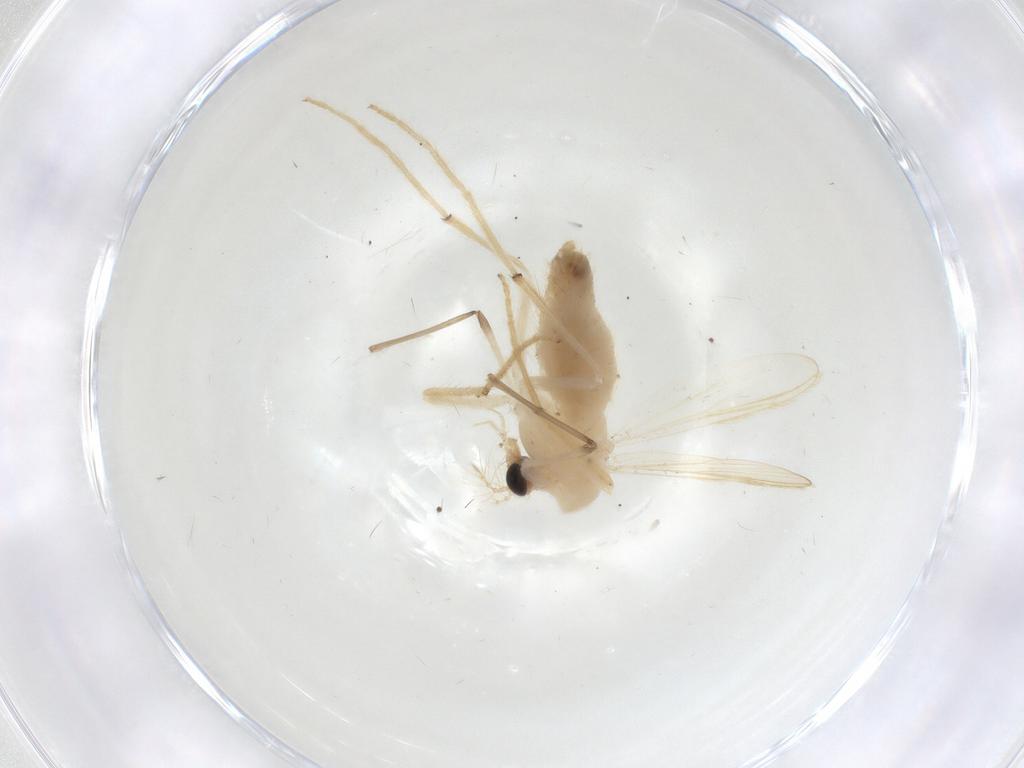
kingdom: Animalia
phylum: Arthropoda
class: Insecta
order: Diptera
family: Chironomidae
